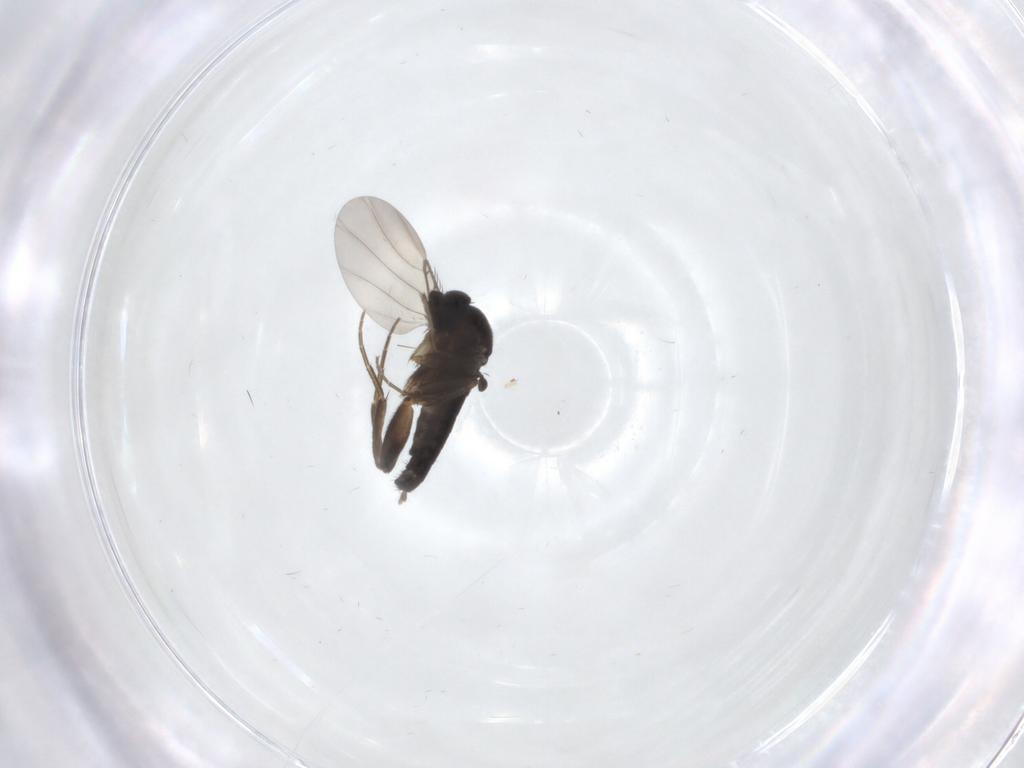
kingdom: Animalia
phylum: Arthropoda
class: Insecta
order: Diptera
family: Phoridae
